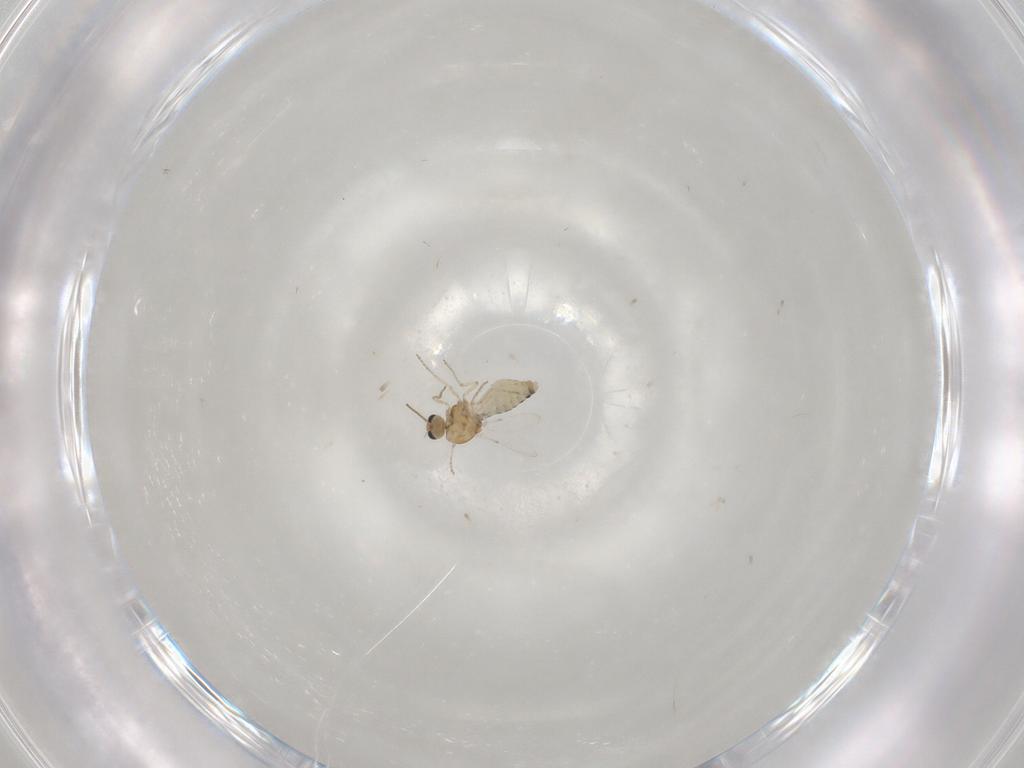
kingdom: Animalia
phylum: Arthropoda
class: Insecta
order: Diptera
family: Ceratopogonidae
